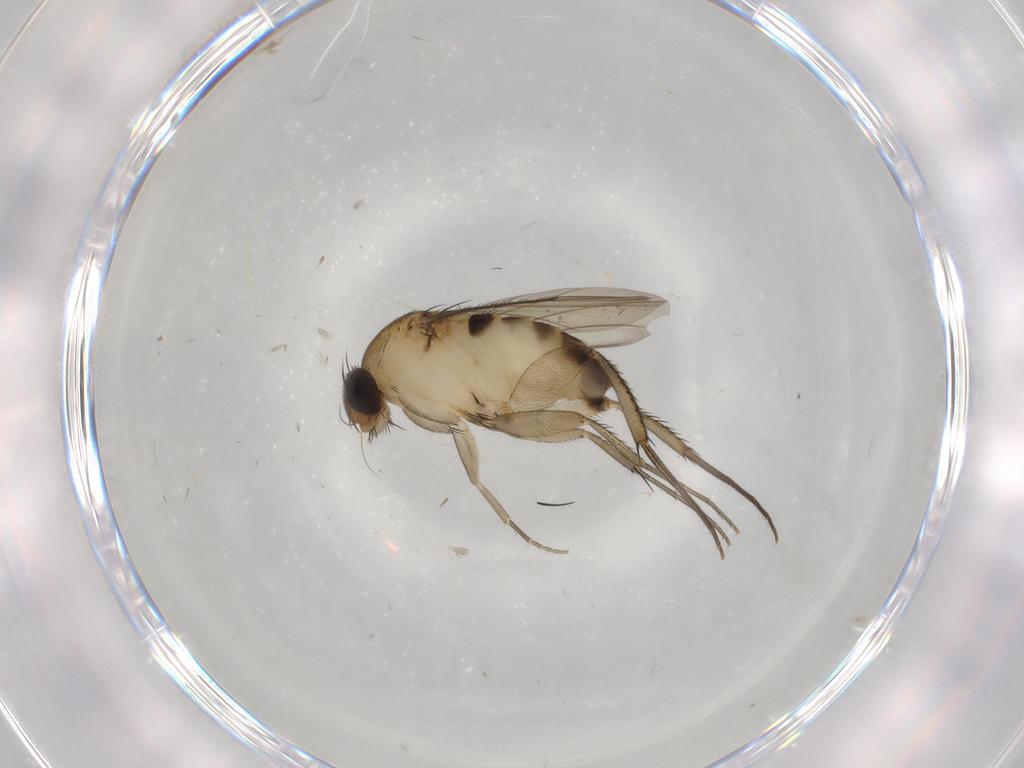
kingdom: Animalia
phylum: Arthropoda
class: Insecta
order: Diptera
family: Phoridae
